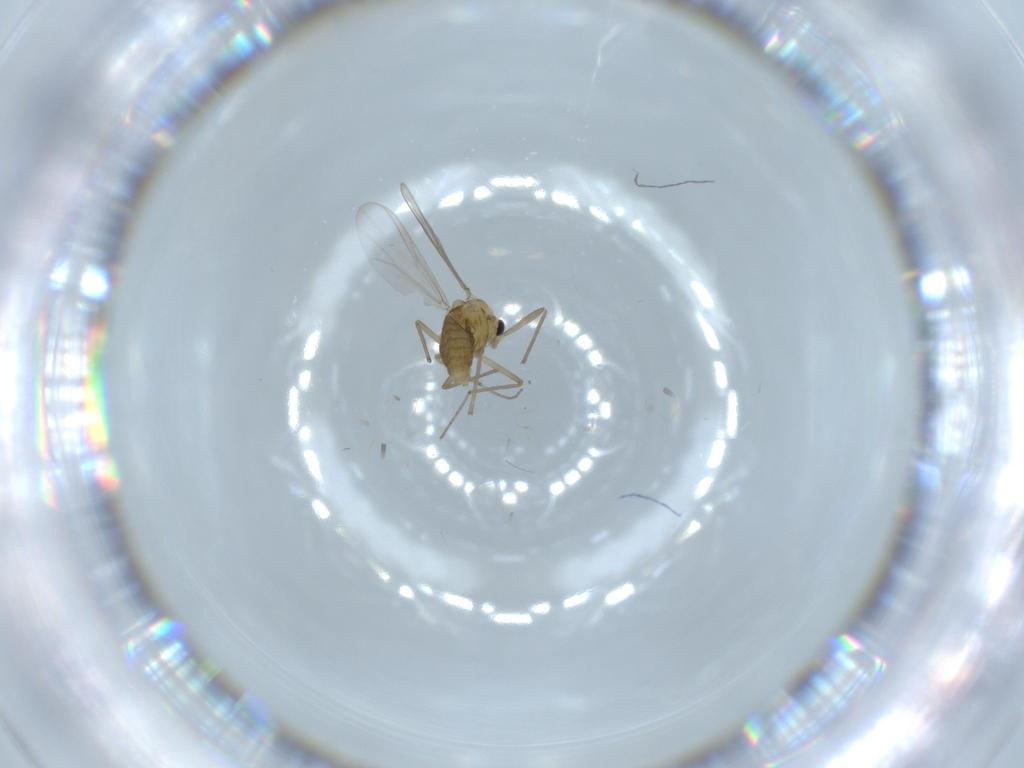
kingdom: Animalia
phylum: Arthropoda
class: Insecta
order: Diptera
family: Chironomidae
